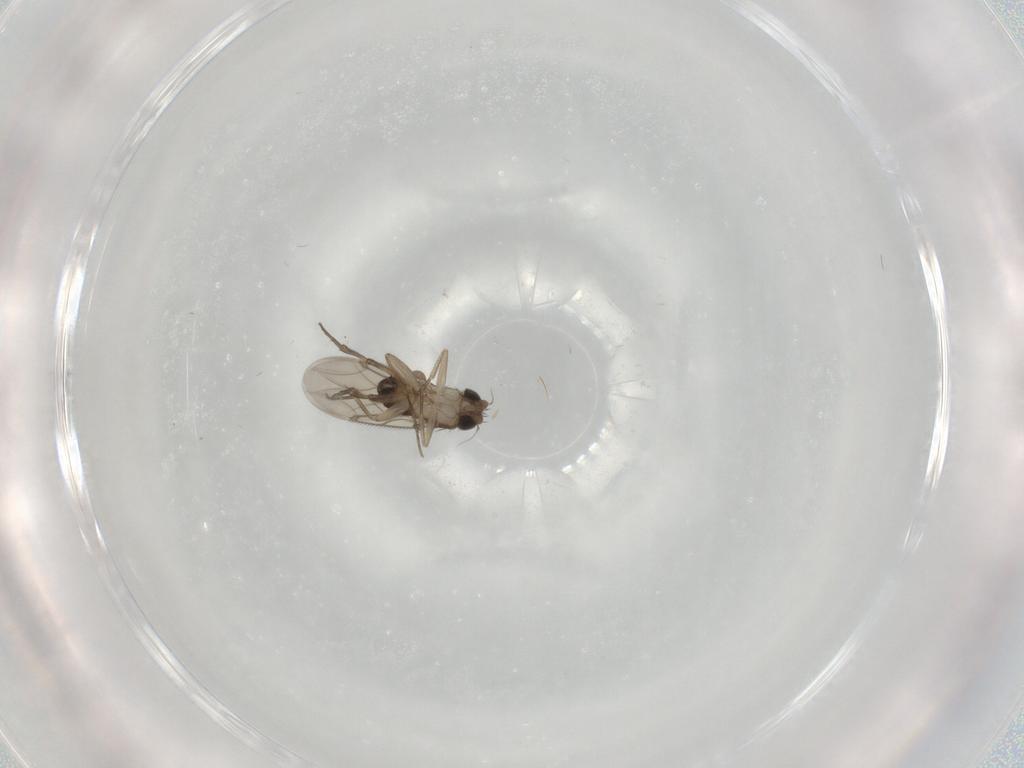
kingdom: Animalia
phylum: Arthropoda
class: Insecta
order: Diptera
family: Phoridae
